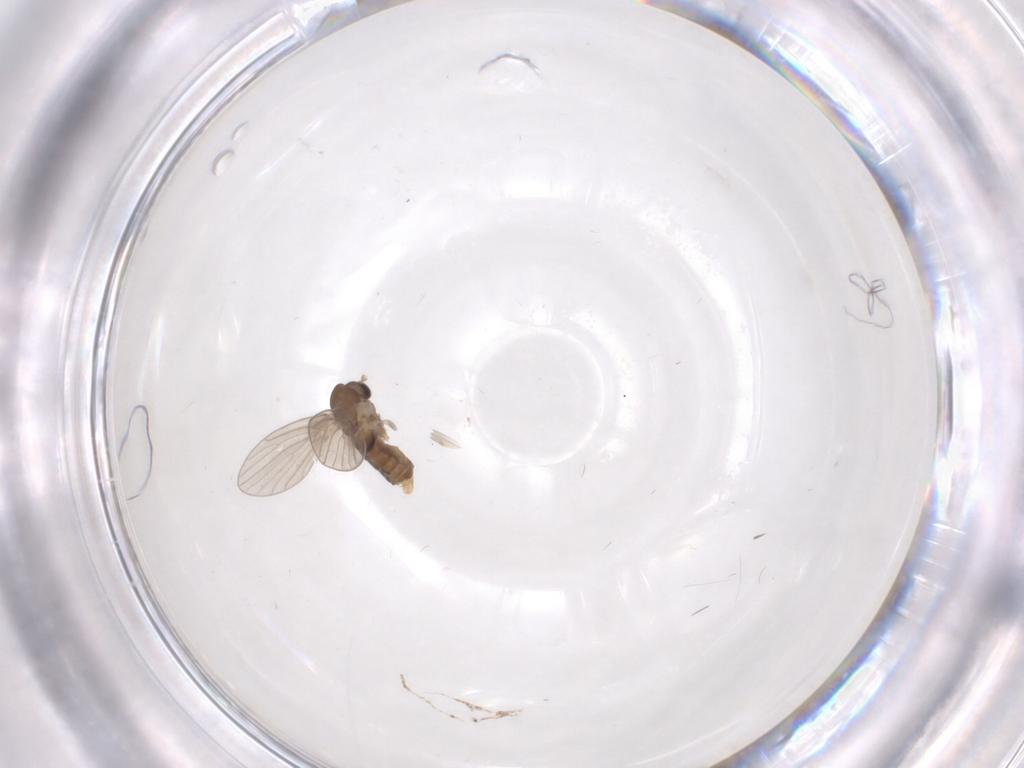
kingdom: Animalia
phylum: Arthropoda
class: Insecta
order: Diptera
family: Psychodidae
